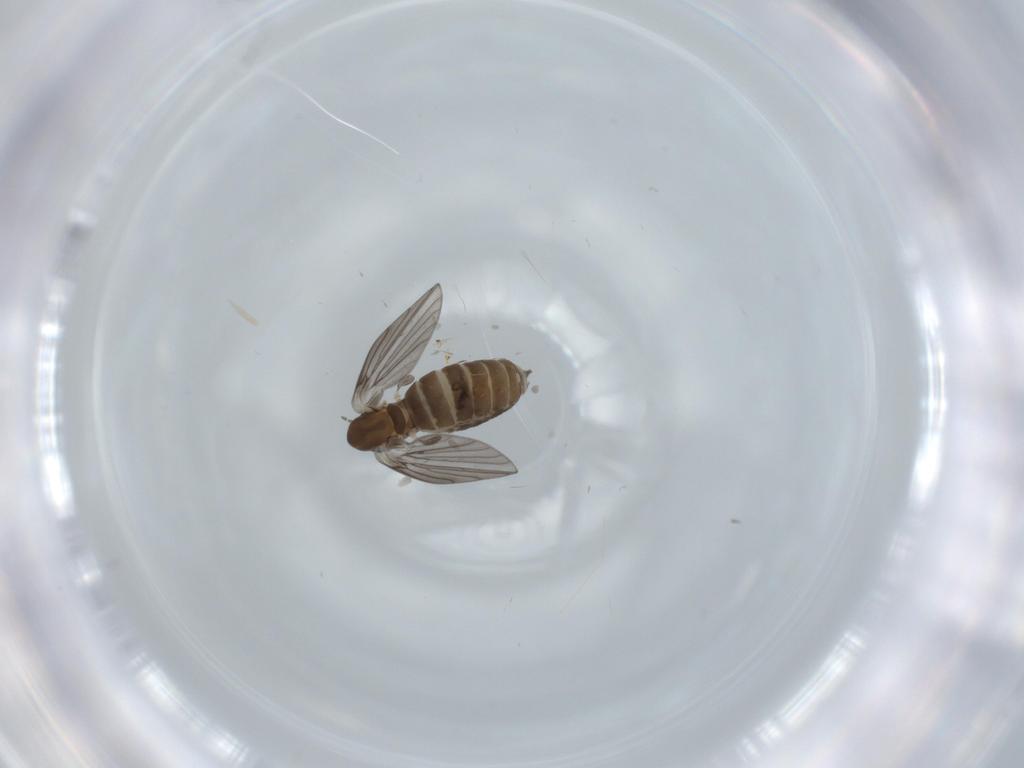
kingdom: Animalia
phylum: Arthropoda
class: Insecta
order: Diptera
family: Psychodidae
